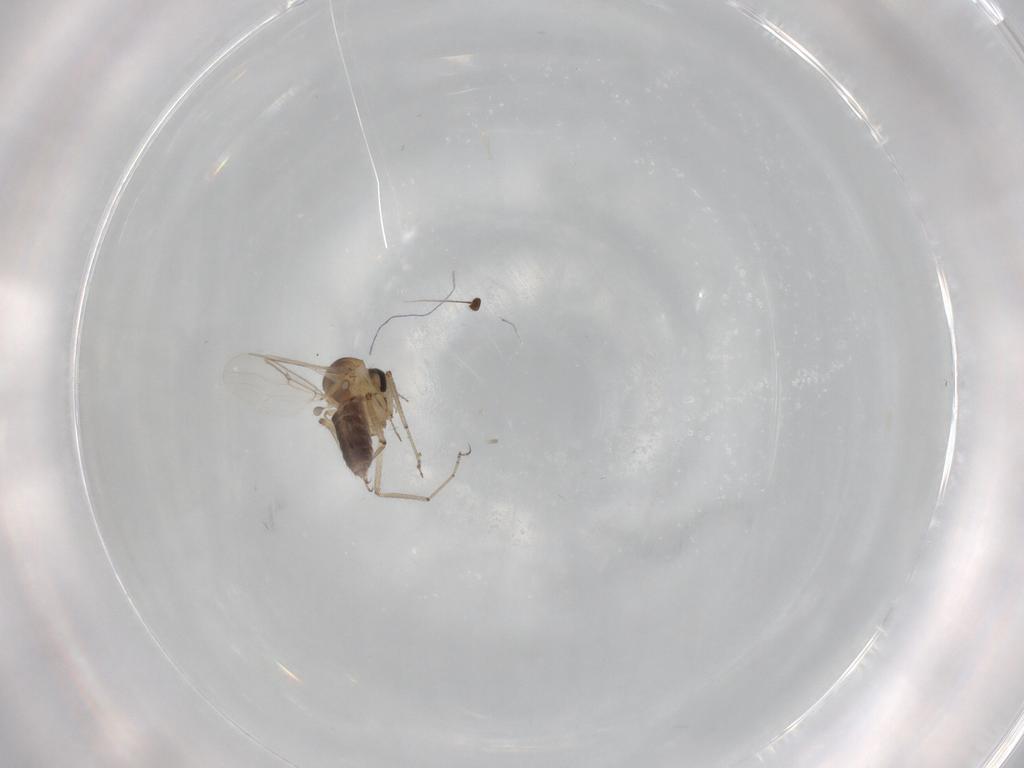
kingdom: Animalia
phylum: Arthropoda
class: Insecta
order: Diptera
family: Ceratopogonidae
